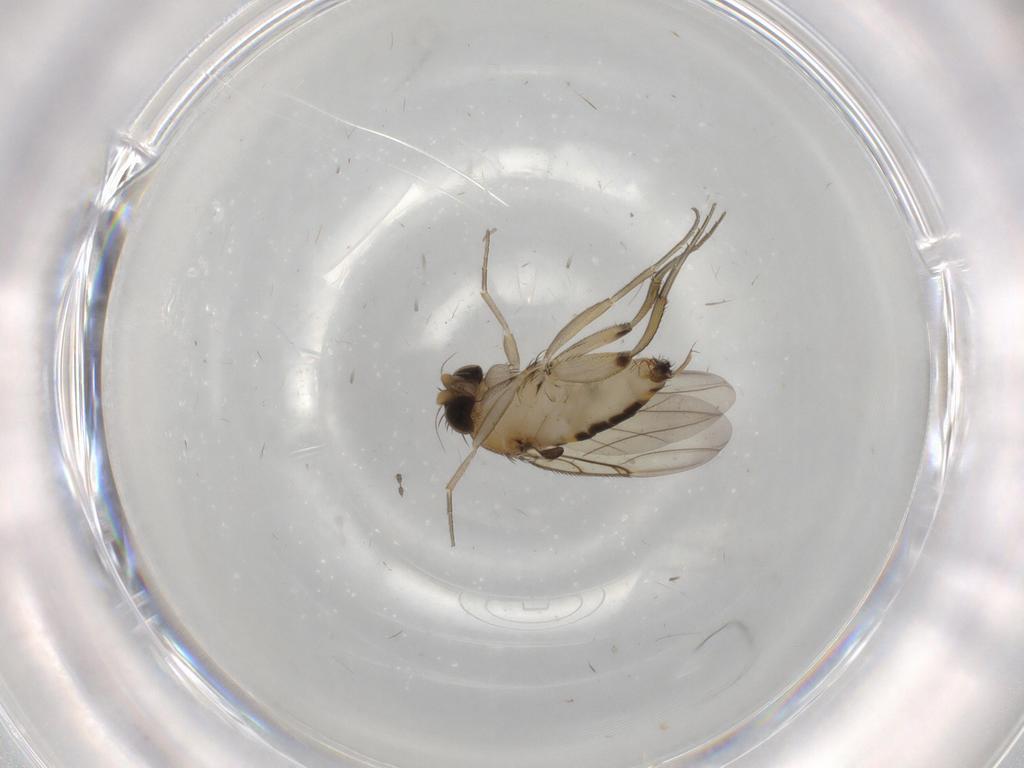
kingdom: Animalia
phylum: Arthropoda
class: Insecta
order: Diptera
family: Phoridae
